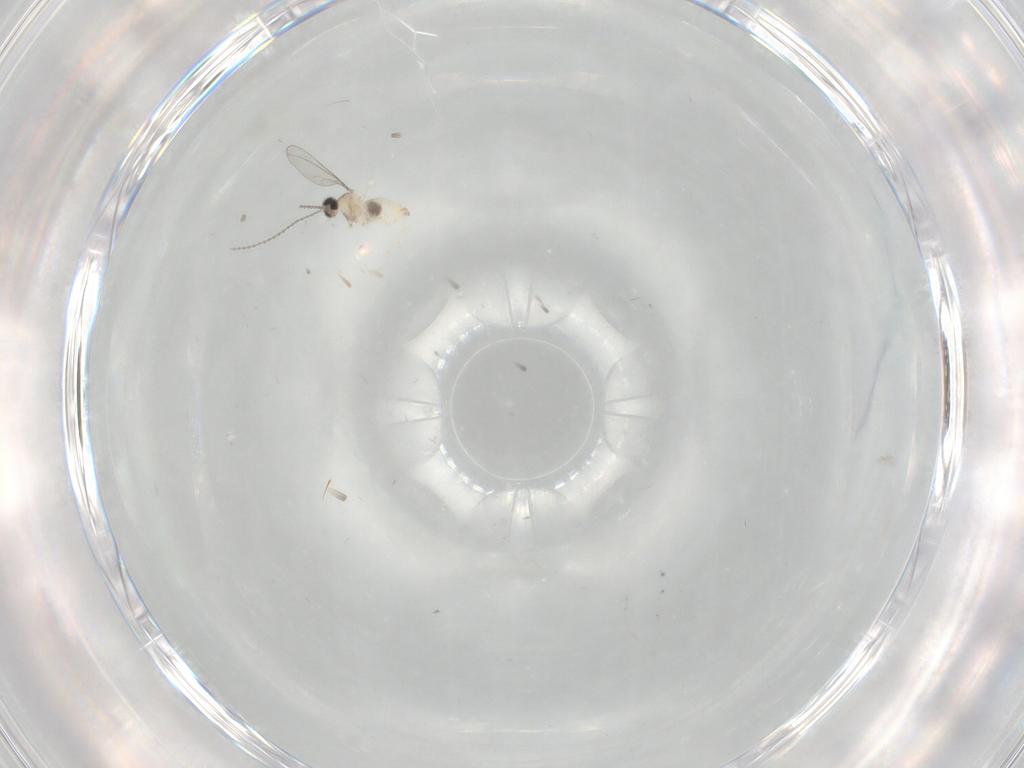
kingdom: Animalia
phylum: Arthropoda
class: Insecta
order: Diptera
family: Cecidomyiidae
